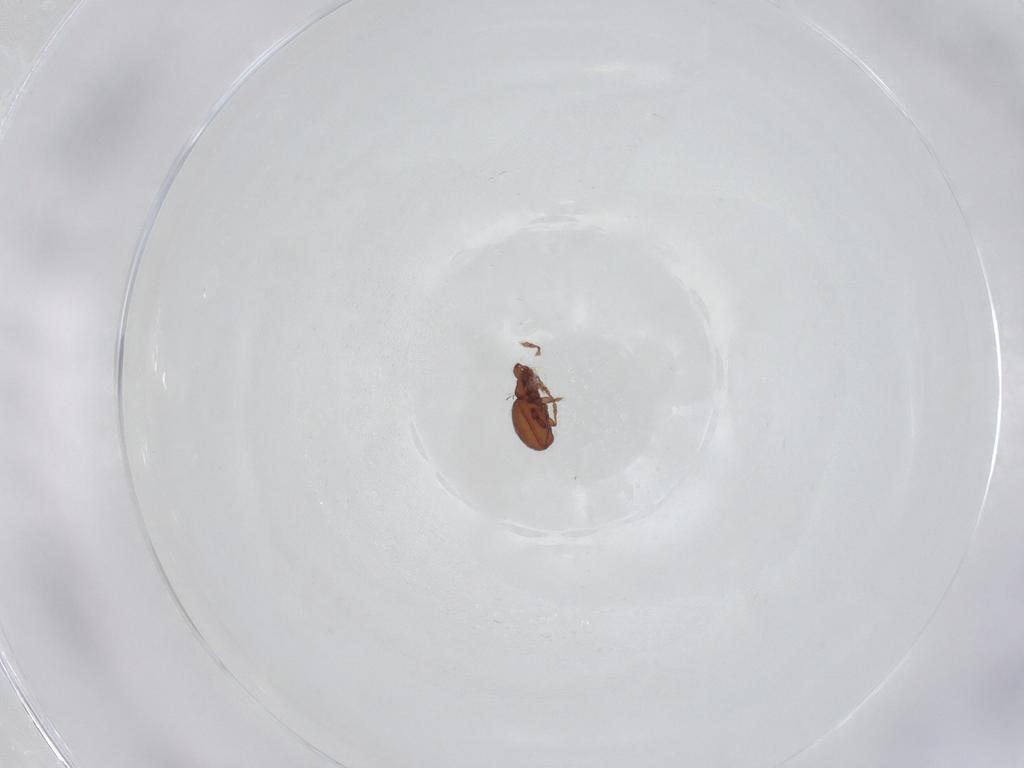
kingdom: Animalia
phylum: Arthropoda
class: Arachnida
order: Sarcoptiformes
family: Eremaeidae
